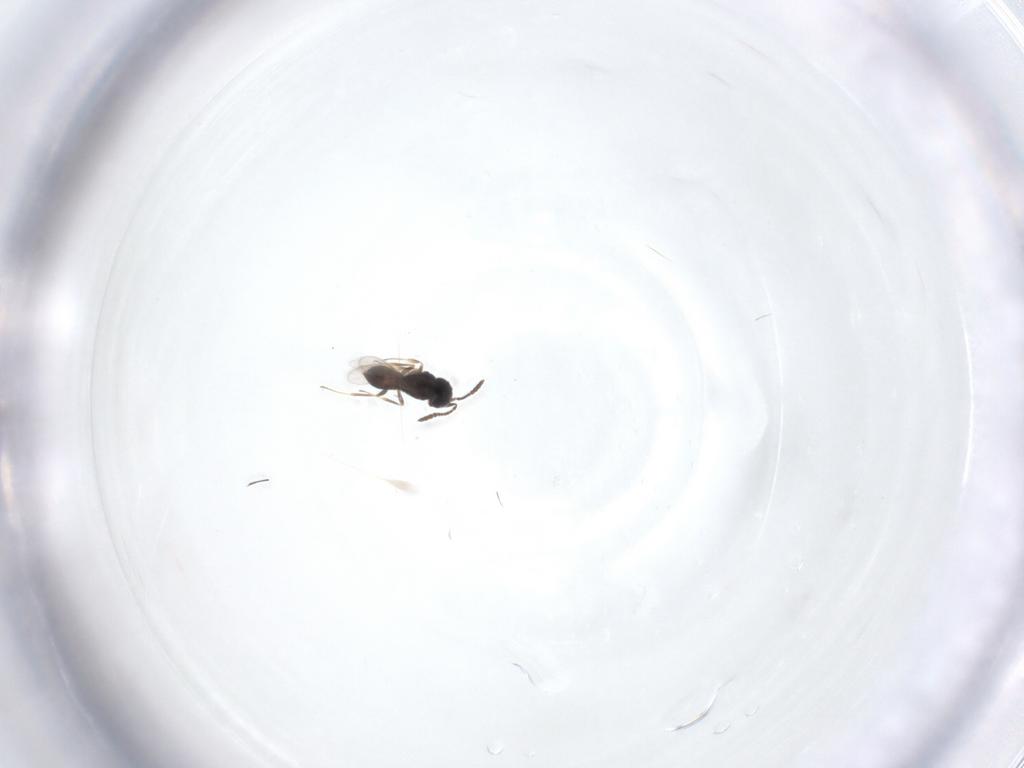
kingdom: Animalia
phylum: Arthropoda
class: Insecta
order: Hymenoptera
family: Scelionidae
